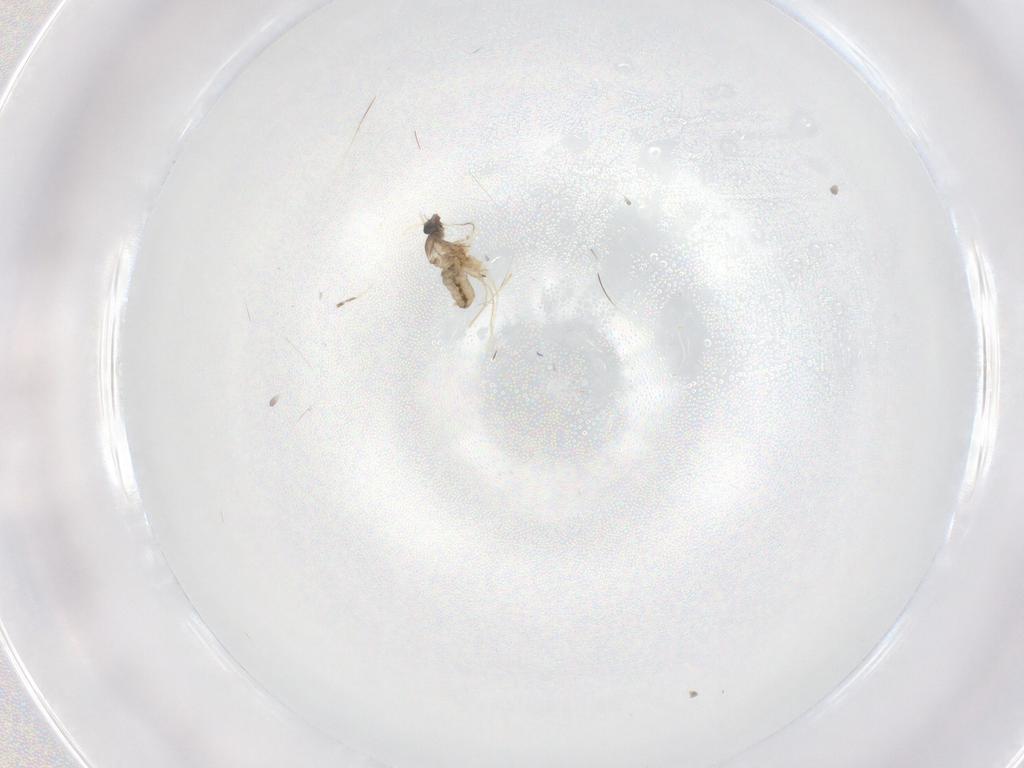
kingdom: Animalia
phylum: Arthropoda
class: Insecta
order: Diptera
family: Cecidomyiidae
